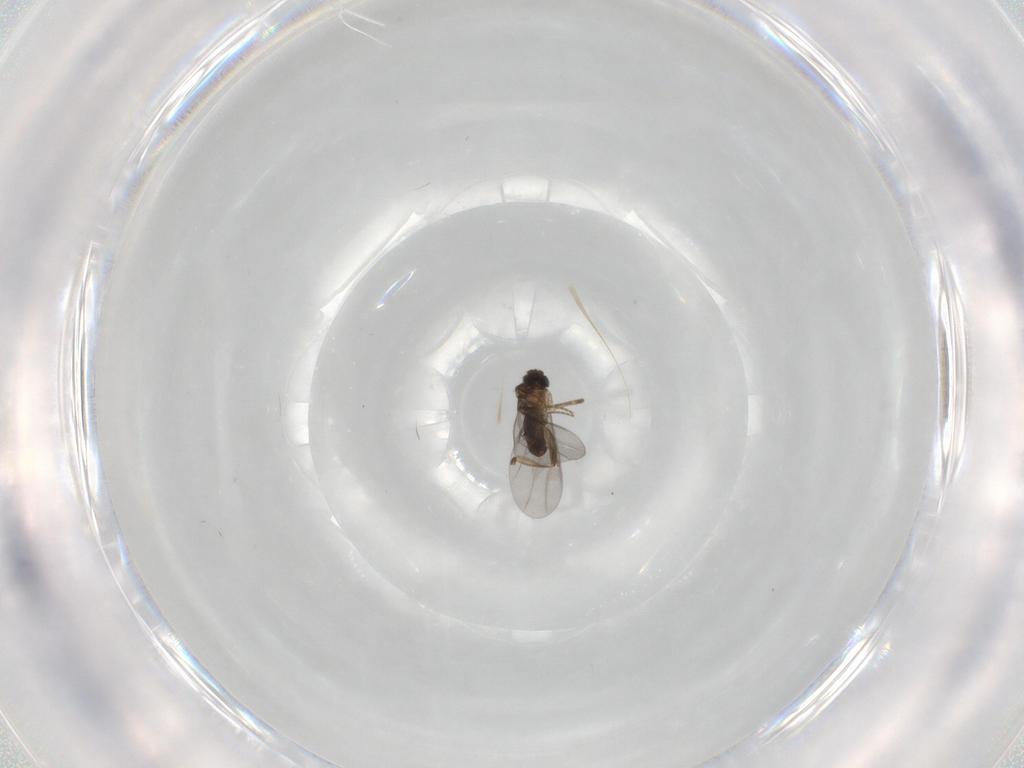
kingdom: Animalia
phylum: Arthropoda
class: Insecta
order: Diptera
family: Sphaeroceridae
